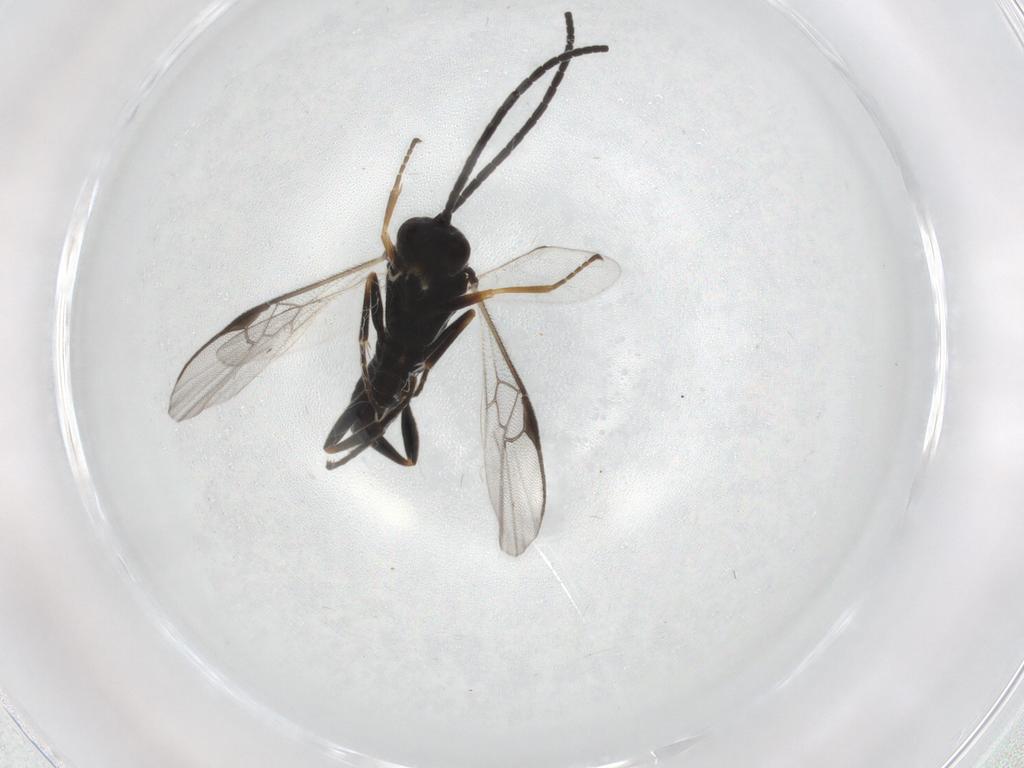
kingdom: Animalia
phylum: Arthropoda
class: Insecta
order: Hymenoptera
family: Braconidae
